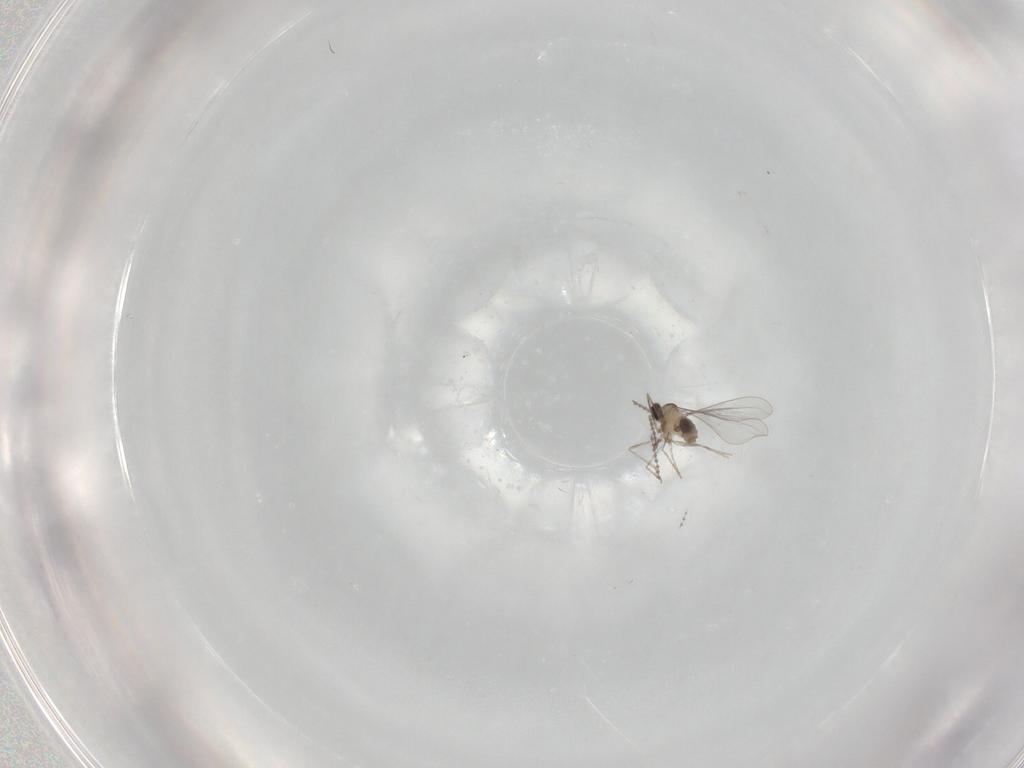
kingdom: Animalia
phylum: Arthropoda
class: Insecta
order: Diptera
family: Cecidomyiidae
